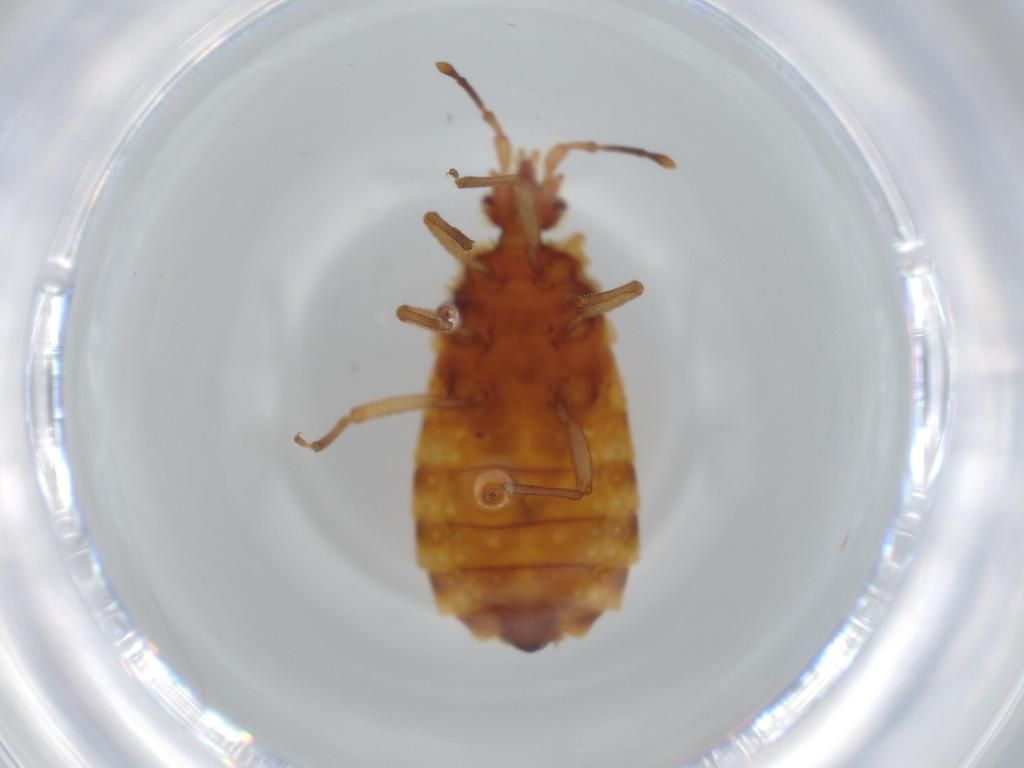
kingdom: Animalia
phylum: Arthropoda
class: Insecta
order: Hemiptera
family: Aradidae
